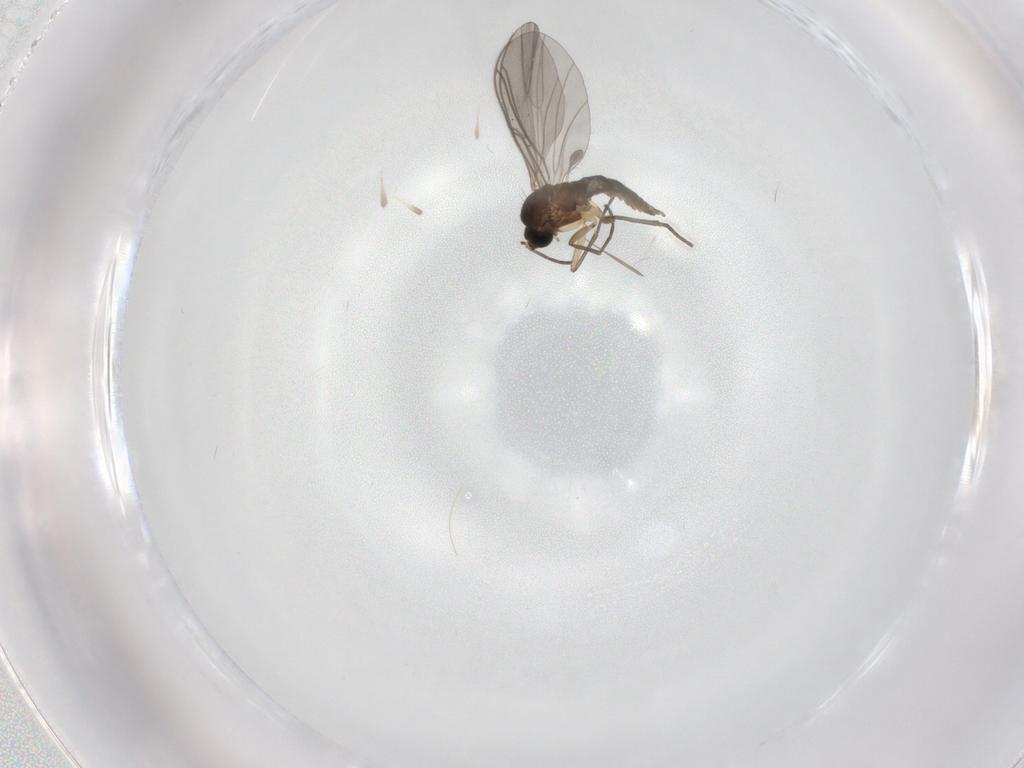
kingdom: Animalia
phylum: Arthropoda
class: Insecta
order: Diptera
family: Sciaridae
